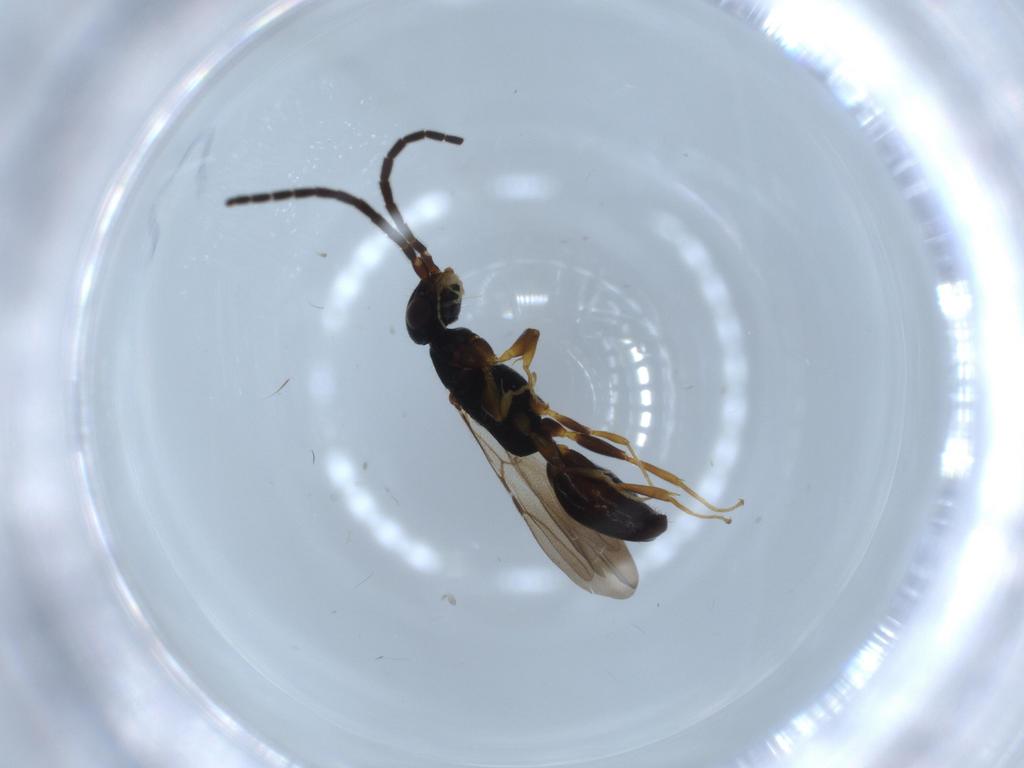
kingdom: Animalia
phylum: Arthropoda
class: Insecta
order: Hymenoptera
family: Bethylidae
